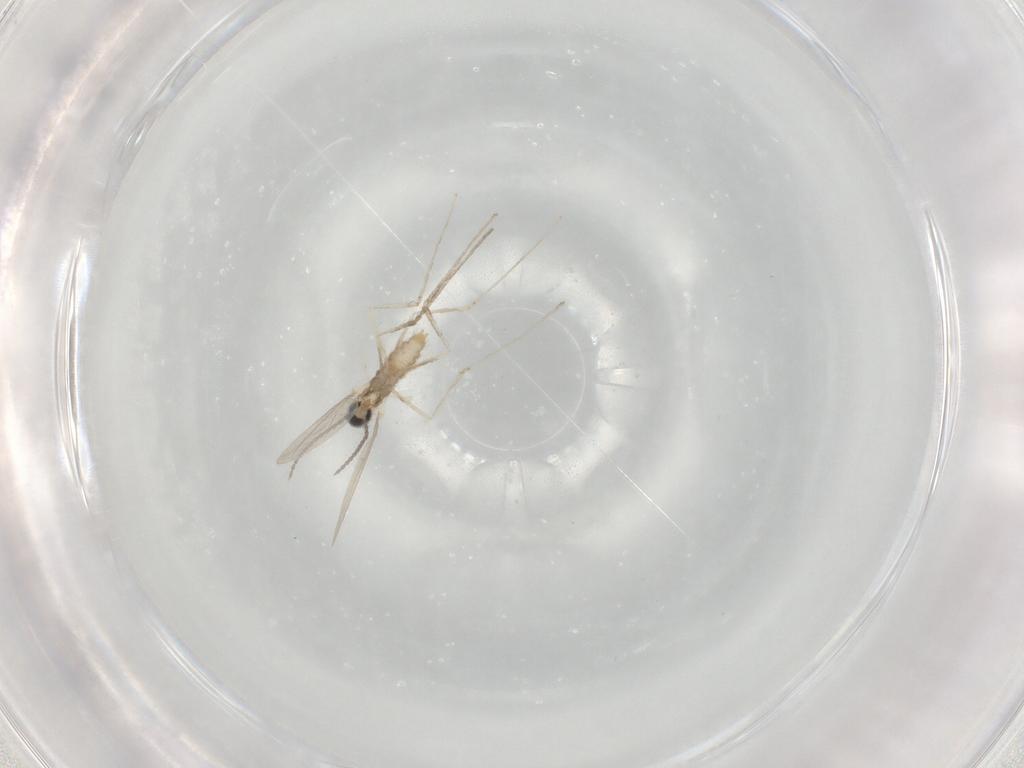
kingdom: Animalia
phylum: Arthropoda
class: Insecta
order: Diptera
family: Cecidomyiidae
